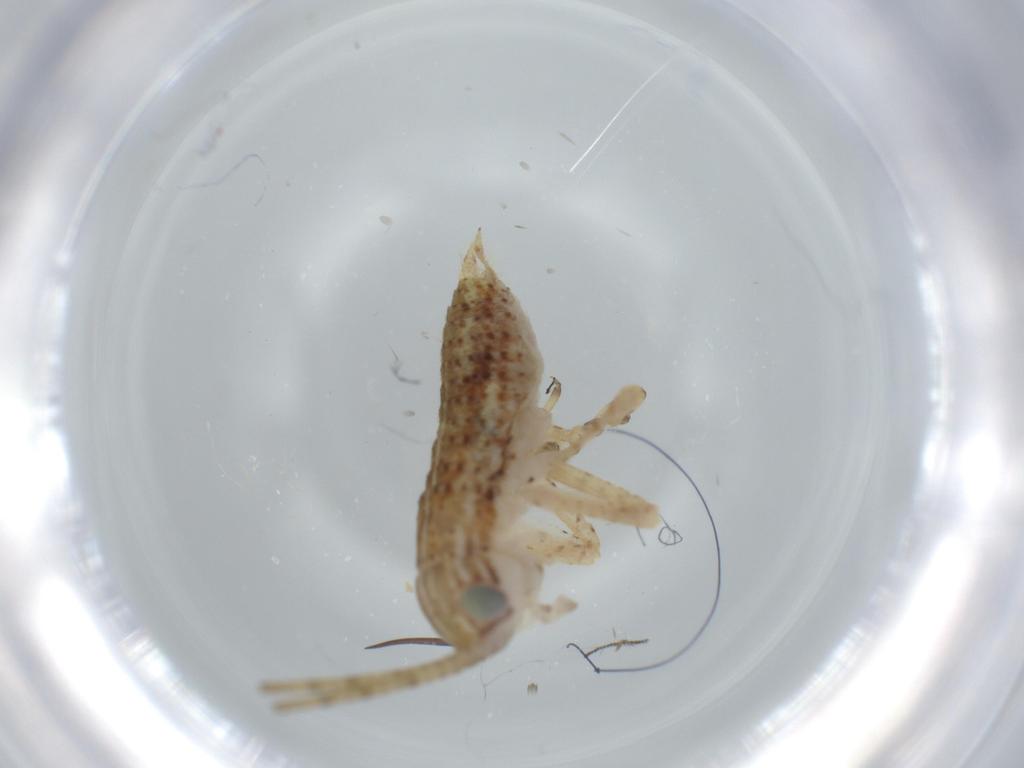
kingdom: Animalia
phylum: Arthropoda
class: Insecta
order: Orthoptera
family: Gryllidae
